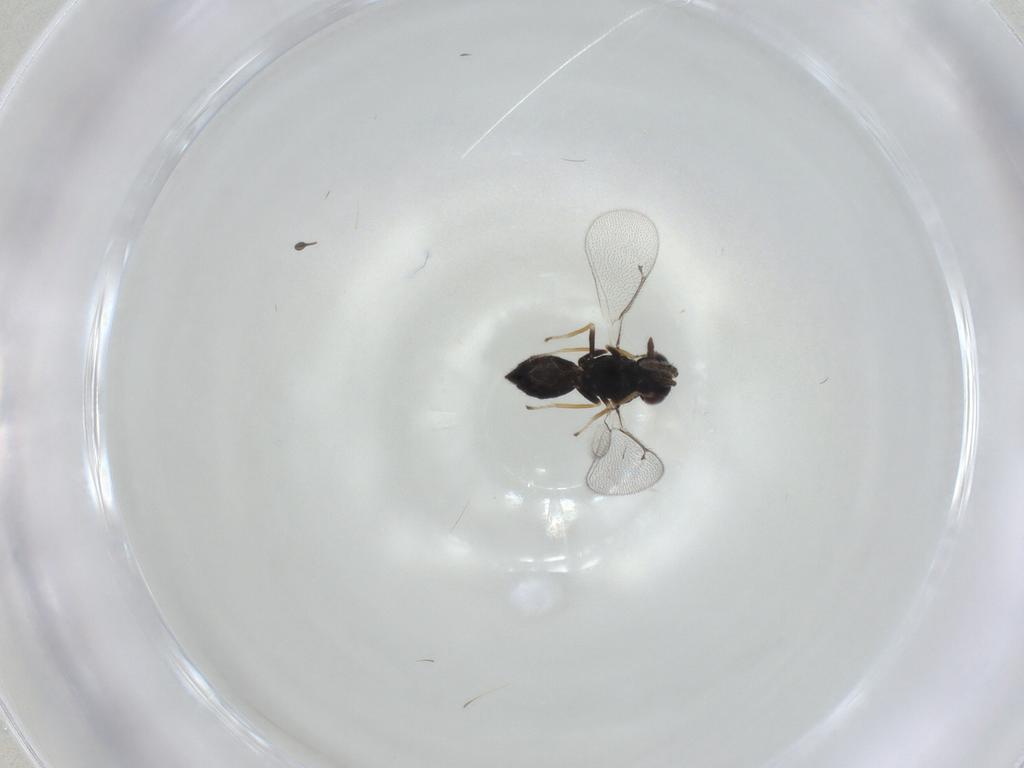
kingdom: Animalia
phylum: Arthropoda
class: Insecta
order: Hymenoptera
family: Eulophidae
